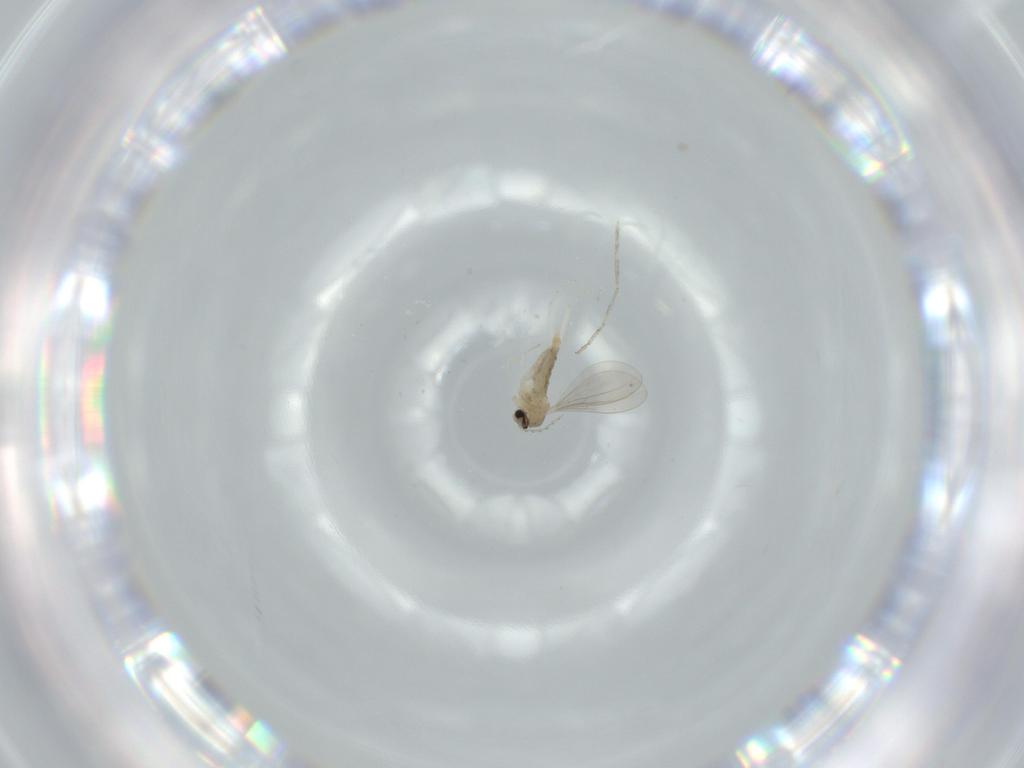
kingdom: Animalia
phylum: Arthropoda
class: Insecta
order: Diptera
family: Cecidomyiidae
